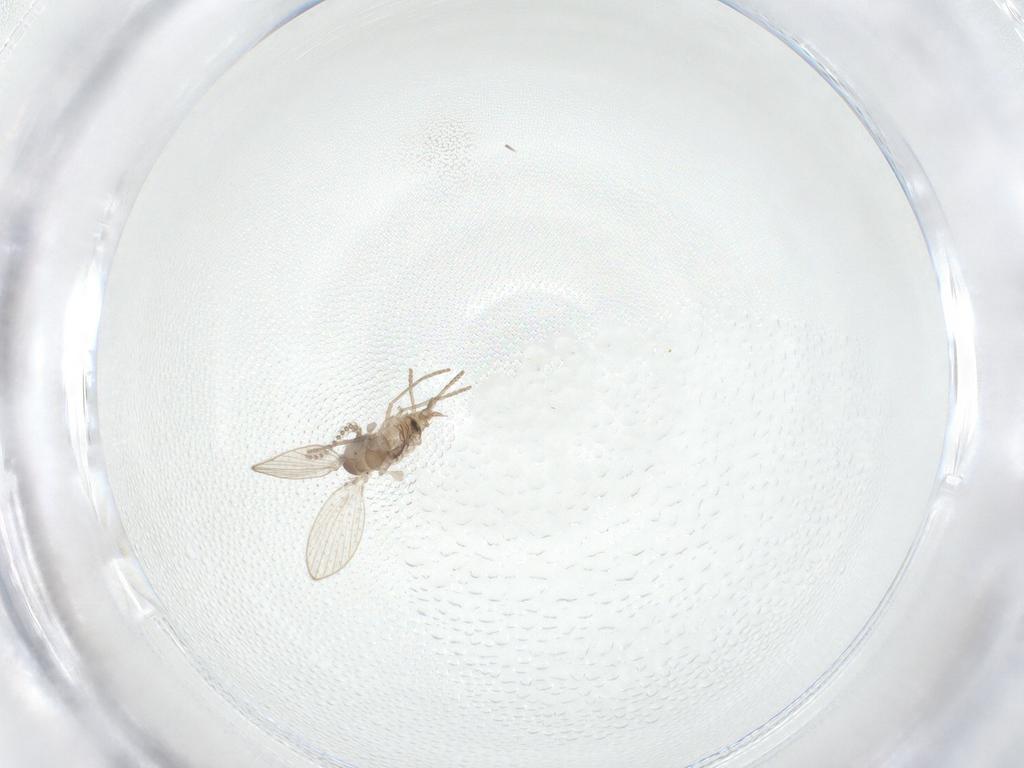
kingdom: Animalia
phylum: Arthropoda
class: Insecta
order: Diptera
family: Psychodidae
